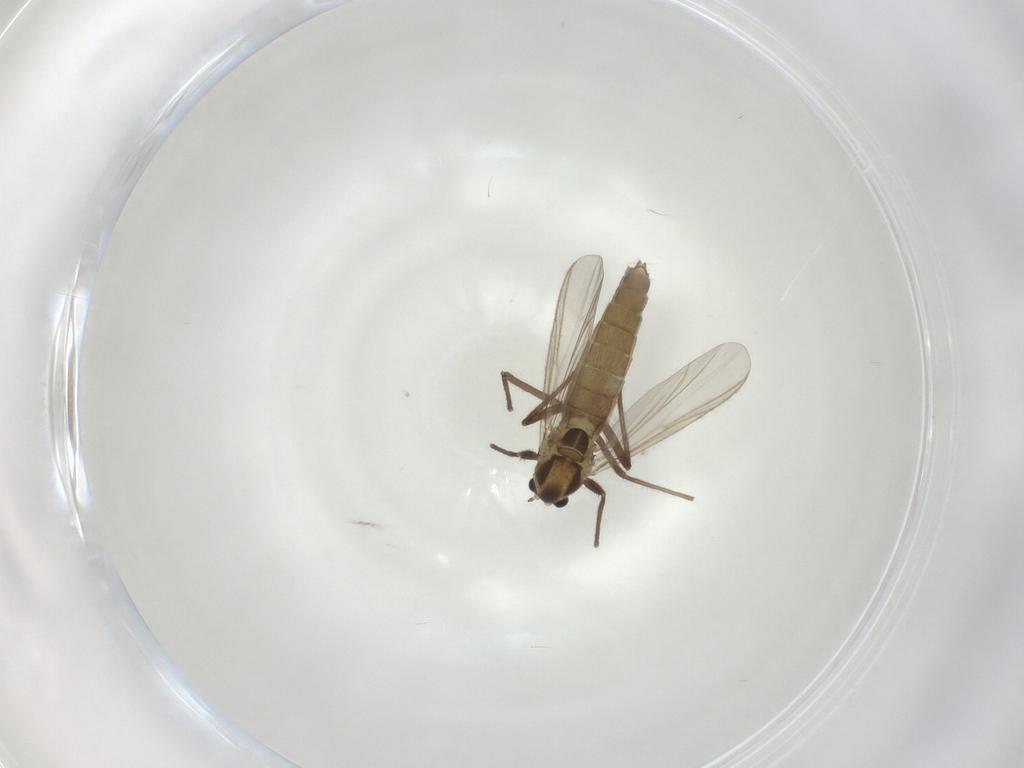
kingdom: Animalia
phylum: Arthropoda
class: Insecta
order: Diptera
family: Chironomidae
